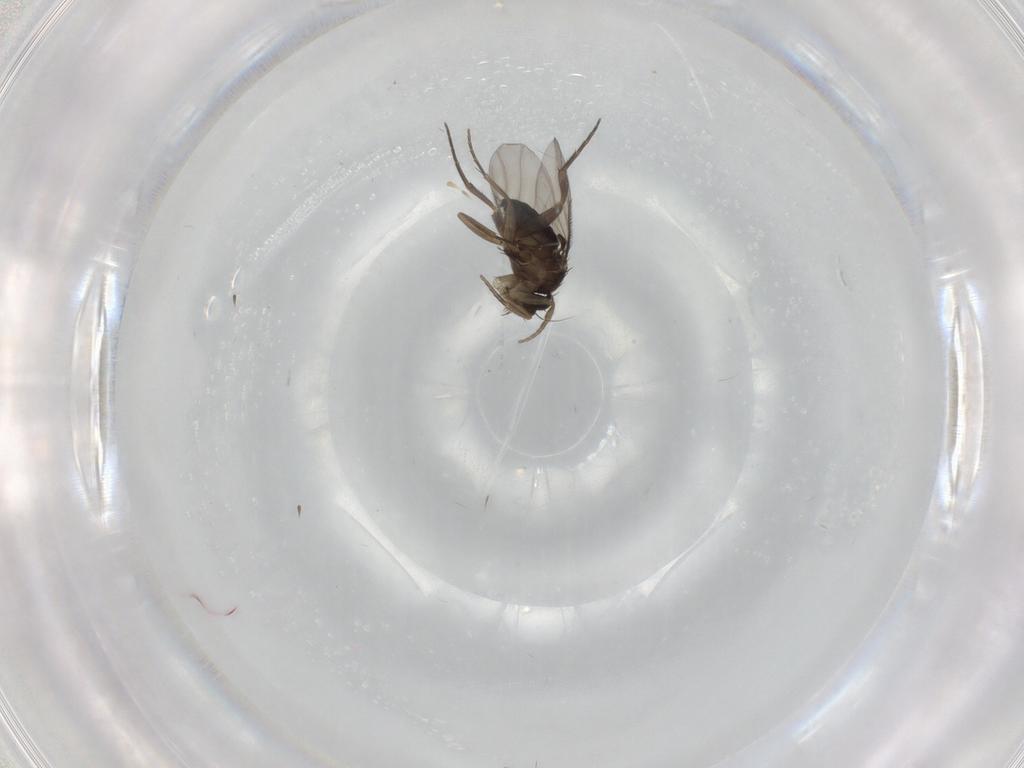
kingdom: Animalia
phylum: Arthropoda
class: Insecta
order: Diptera
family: Phoridae
